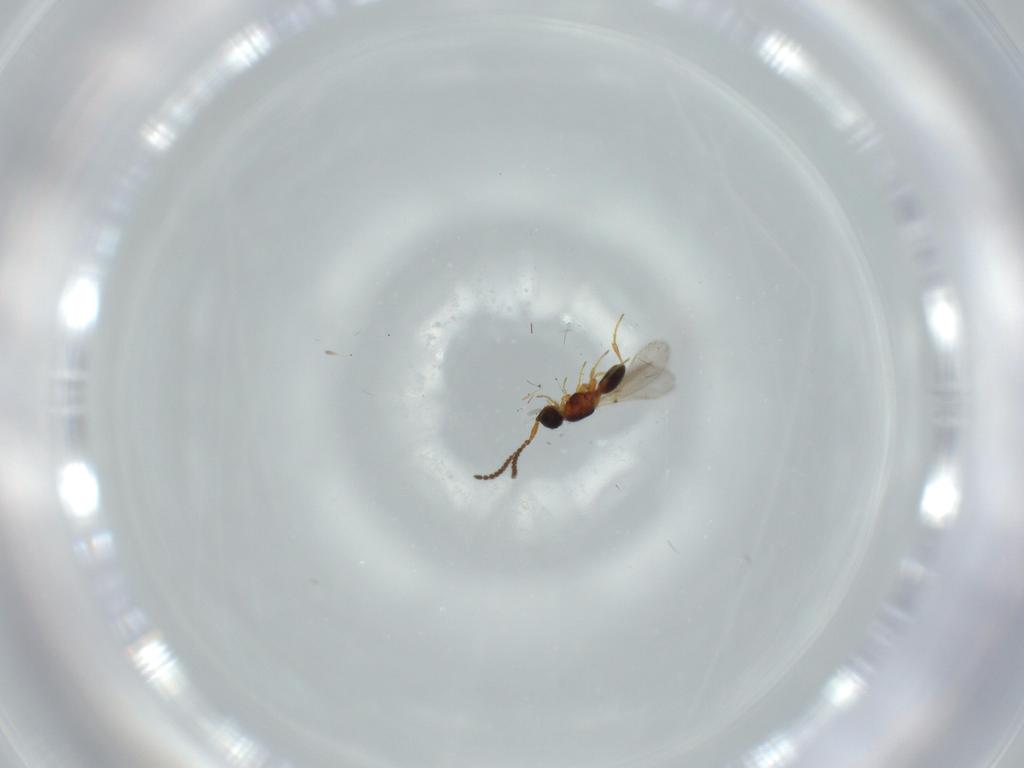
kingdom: Animalia
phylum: Arthropoda
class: Insecta
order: Hymenoptera
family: Diapriidae
